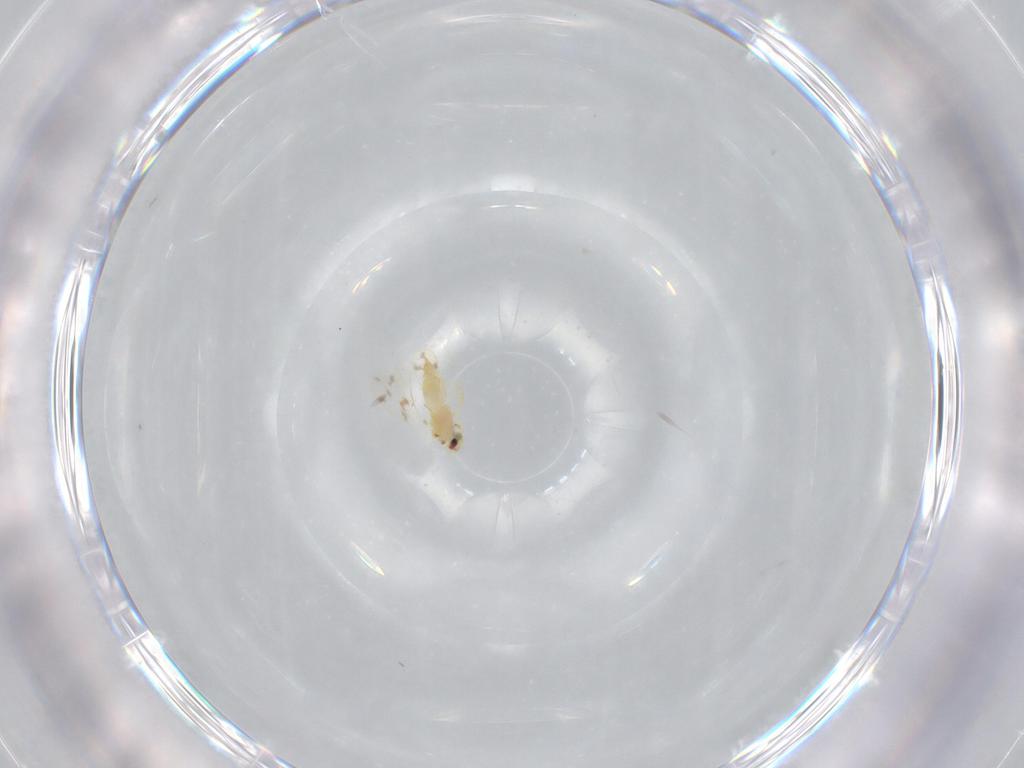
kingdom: Animalia
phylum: Arthropoda
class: Insecta
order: Hemiptera
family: Aleyrodidae
